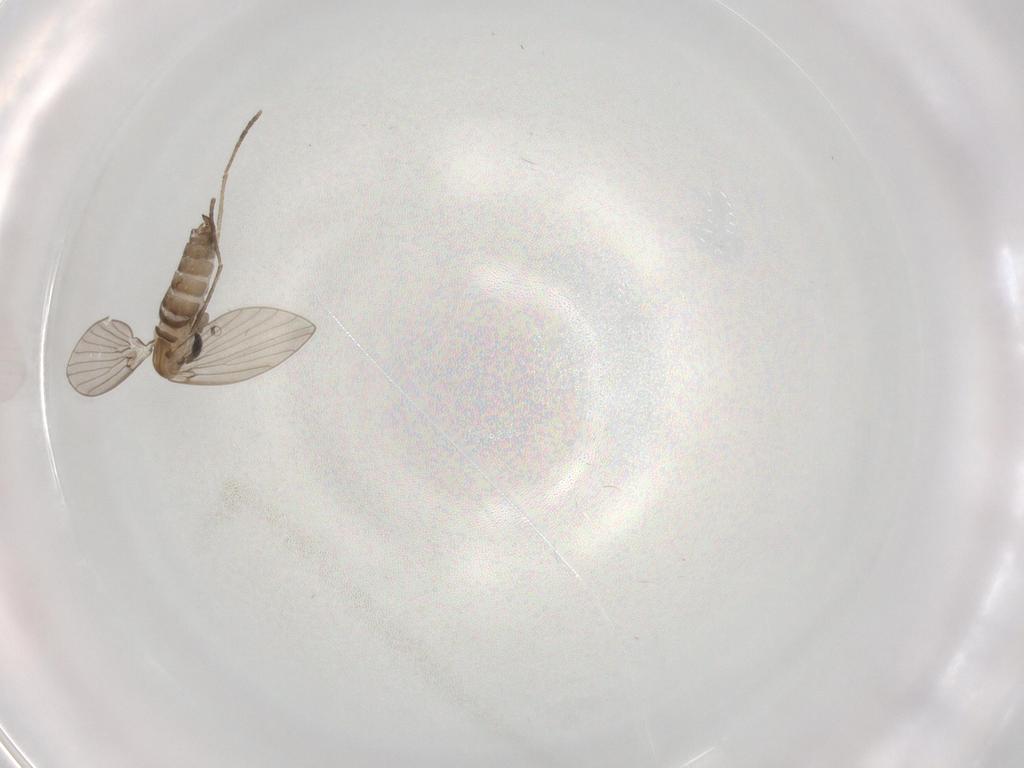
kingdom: Animalia
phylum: Arthropoda
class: Insecta
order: Diptera
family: Psychodidae
